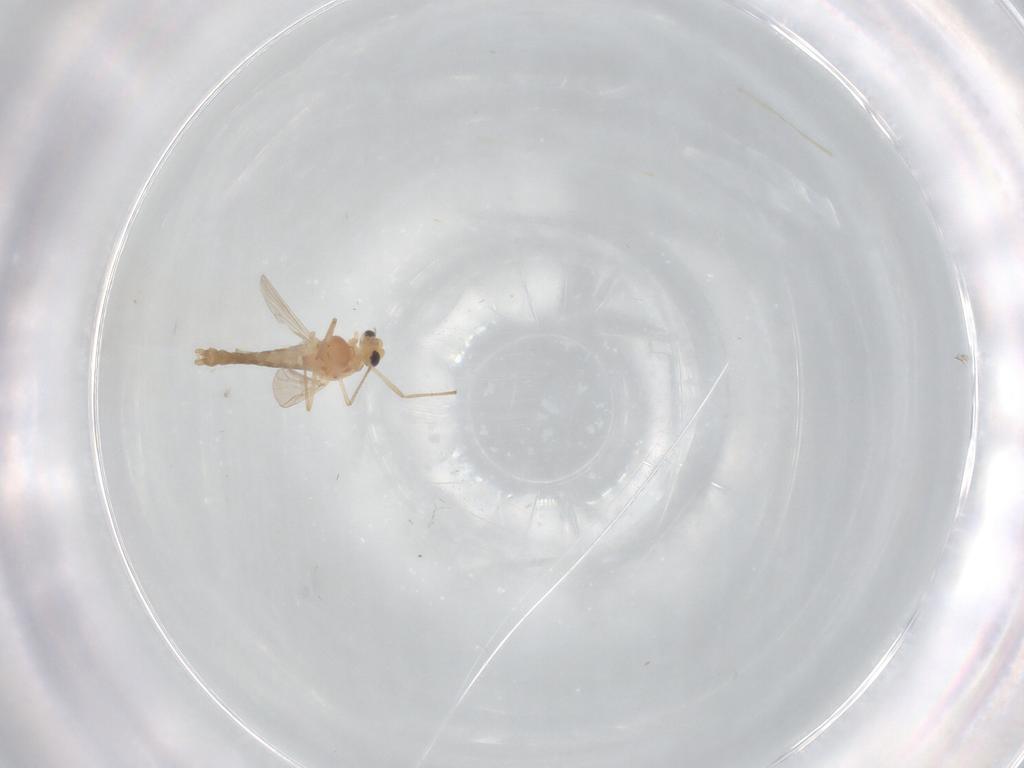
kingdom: Animalia
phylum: Arthropoda
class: Insecta
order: Diptera
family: Chironomidae
